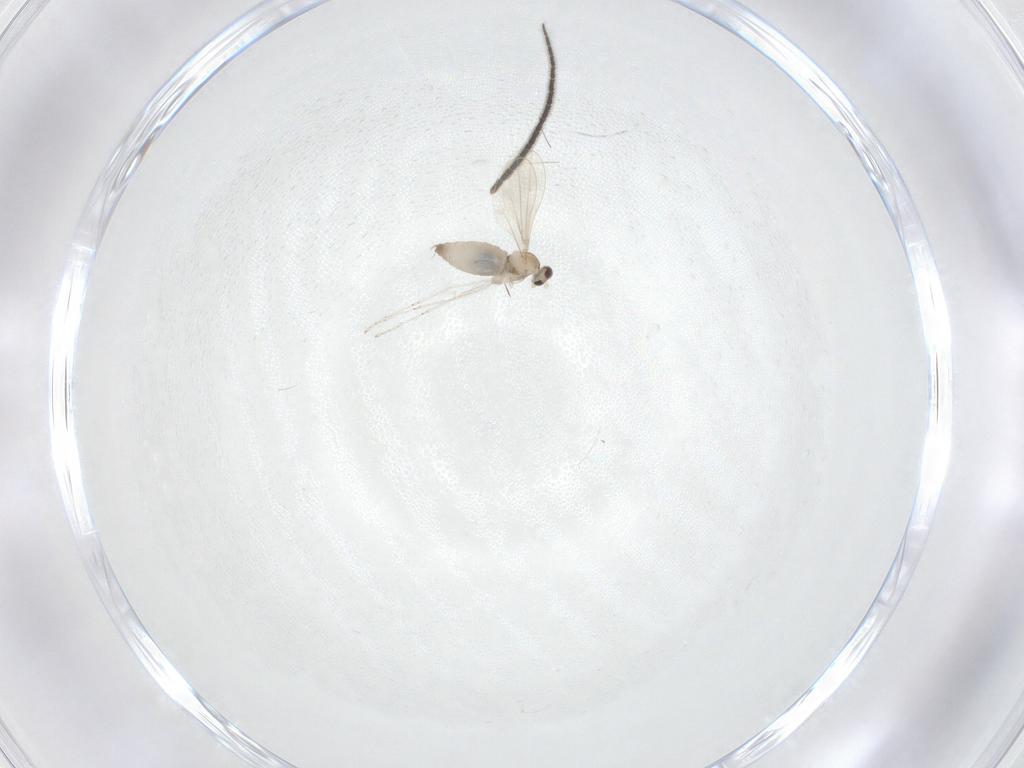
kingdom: Animalia
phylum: Arthropoda
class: Insecta
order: Diptera
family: Sciaridae
